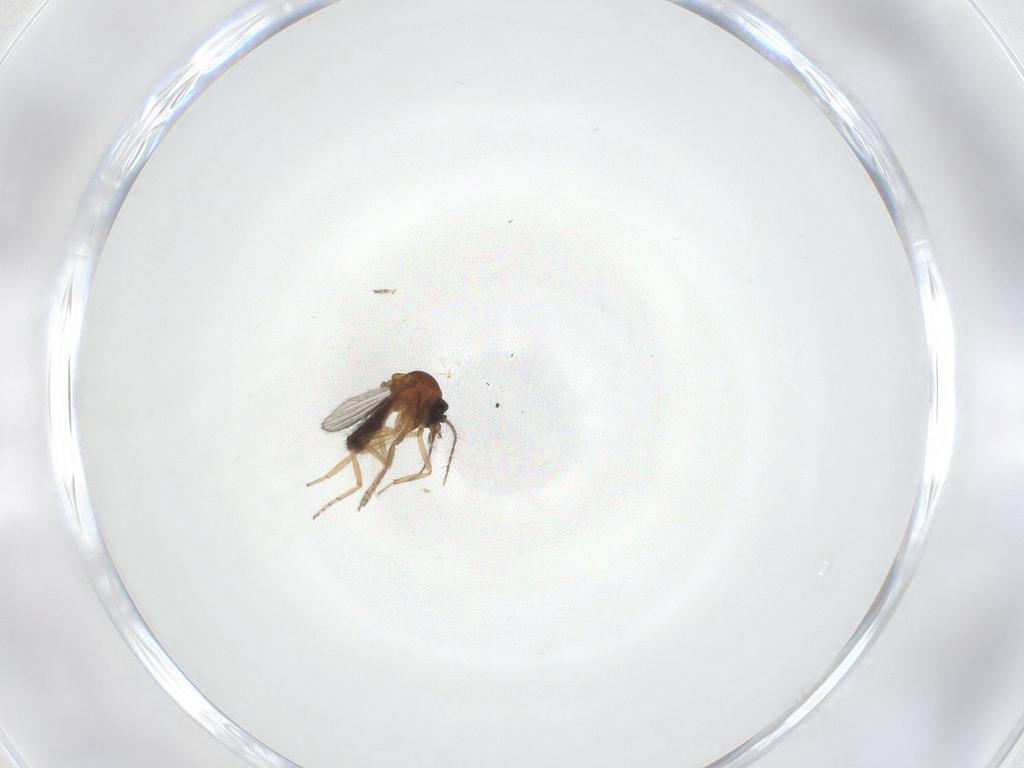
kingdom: Animalia
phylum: Arthropoda
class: Insecta
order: Diptera
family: Ceratopogonidae
